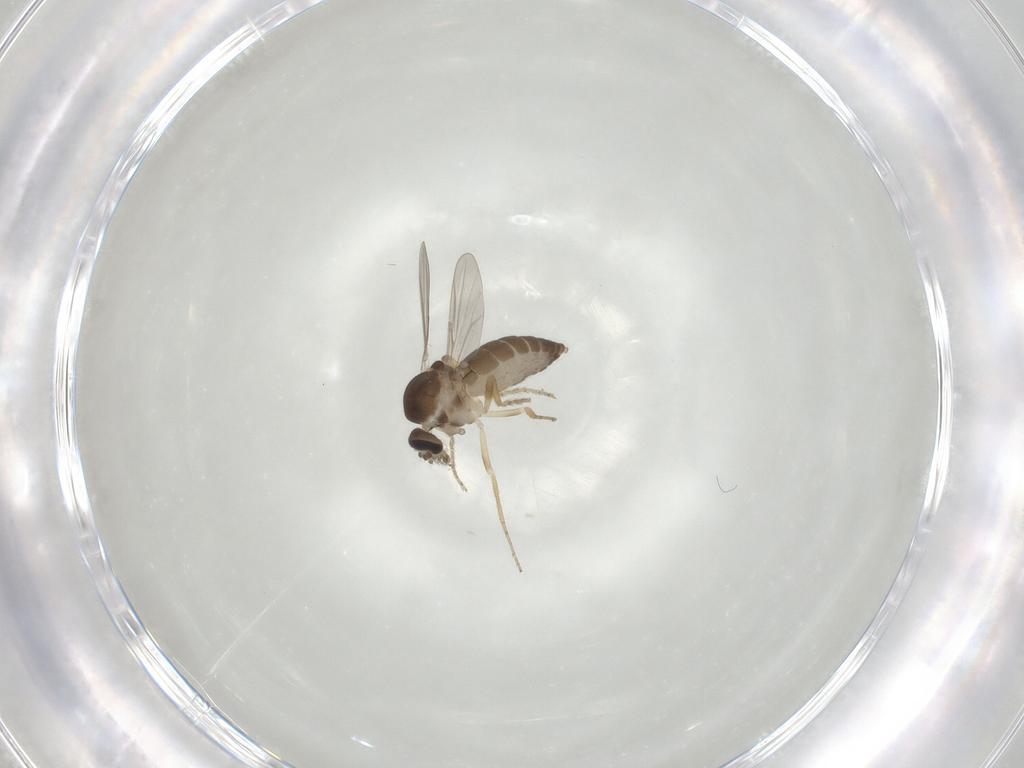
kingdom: Animalia
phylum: Arthropoda
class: Insecta
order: Diptera
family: Ceratopogonidae
